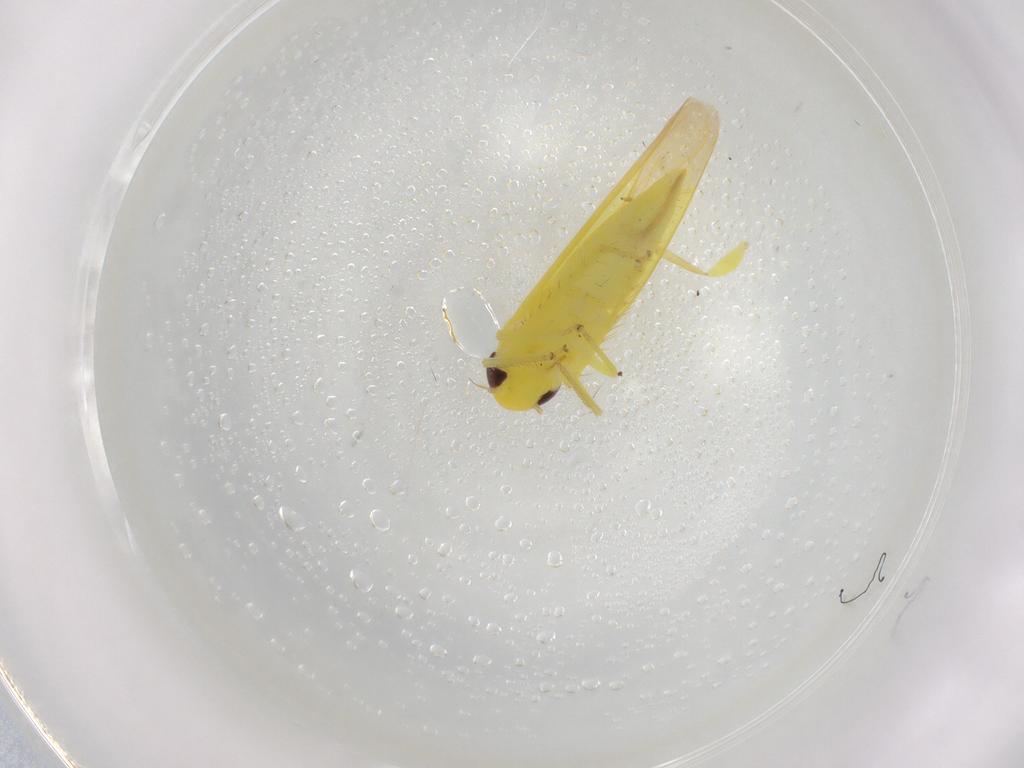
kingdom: Animalia
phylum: Arthropoda
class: Insecta
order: Hemiptera
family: Cicadellidae
